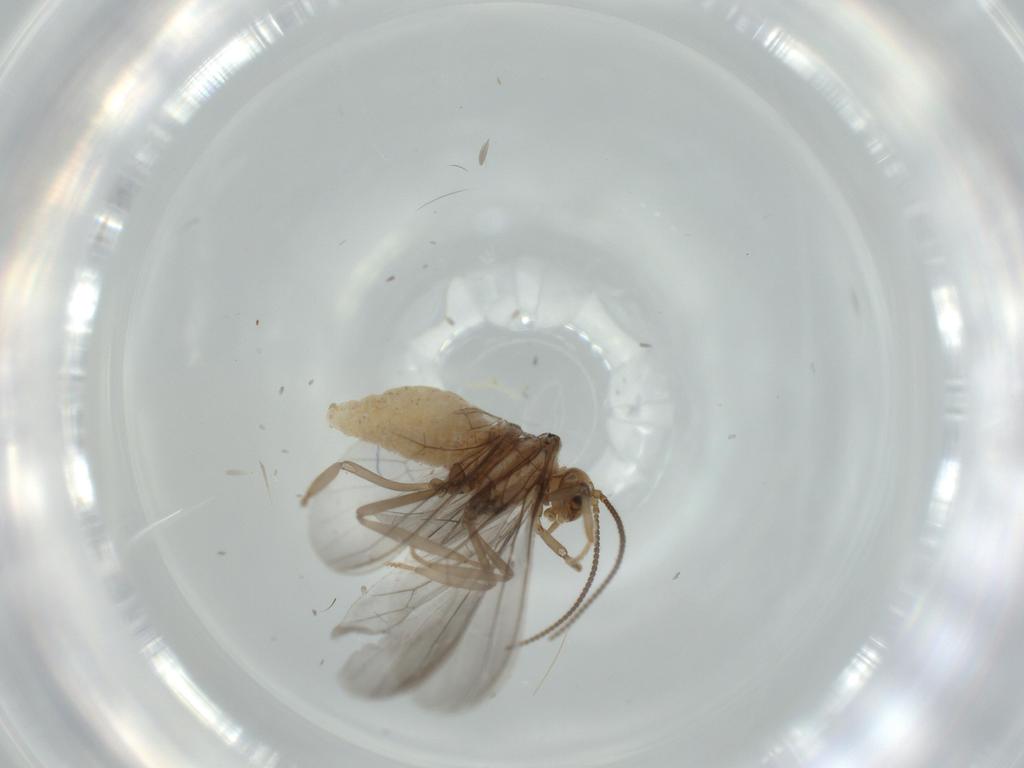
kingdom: Animalia
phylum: Arthropoda
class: Insecta
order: Neuroptera
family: Coniopterygidae
